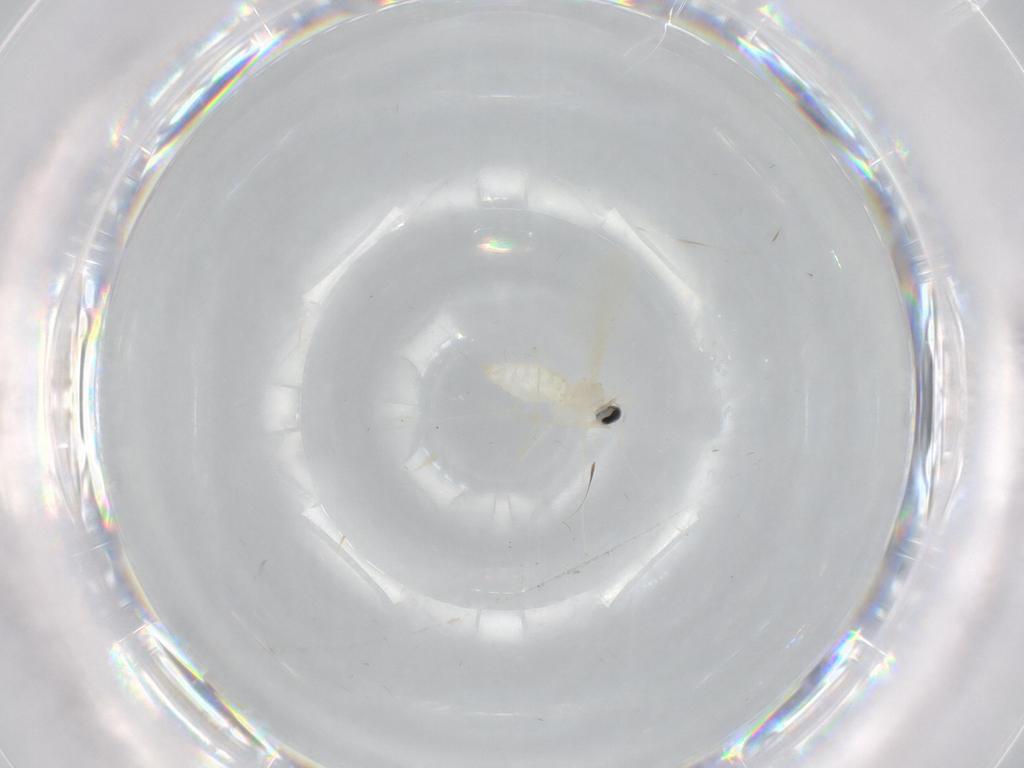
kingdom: Animalia
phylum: Arthropoda
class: Insecta
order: Diptera
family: Cecidomyiidae
